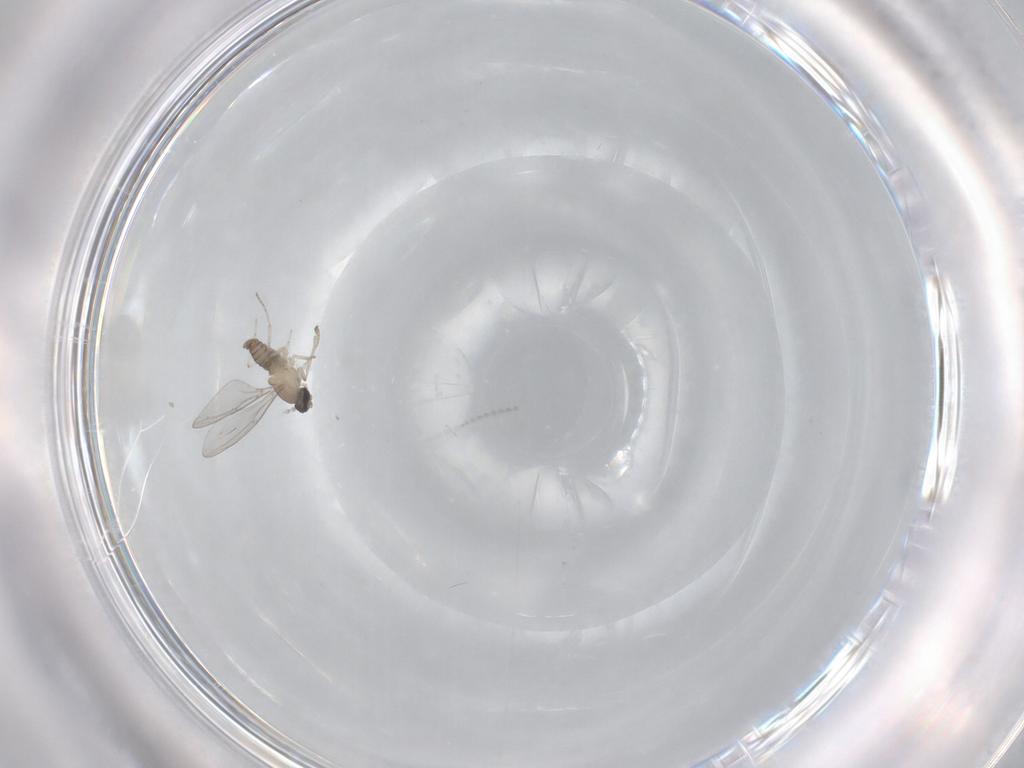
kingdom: Animalia
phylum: Arthropoda
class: Insecta
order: Diptera
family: Cecidomyiidae
